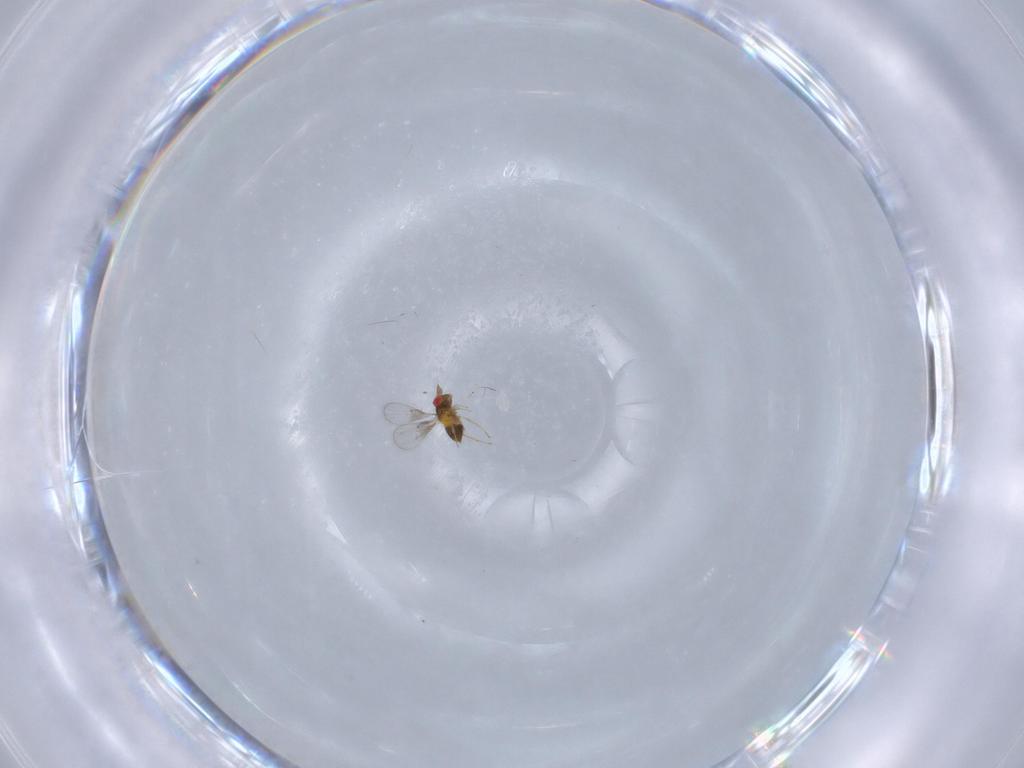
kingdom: Animalia
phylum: Arthropoda
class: Insecta
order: Hymenoptera
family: Trichogrammatidae
